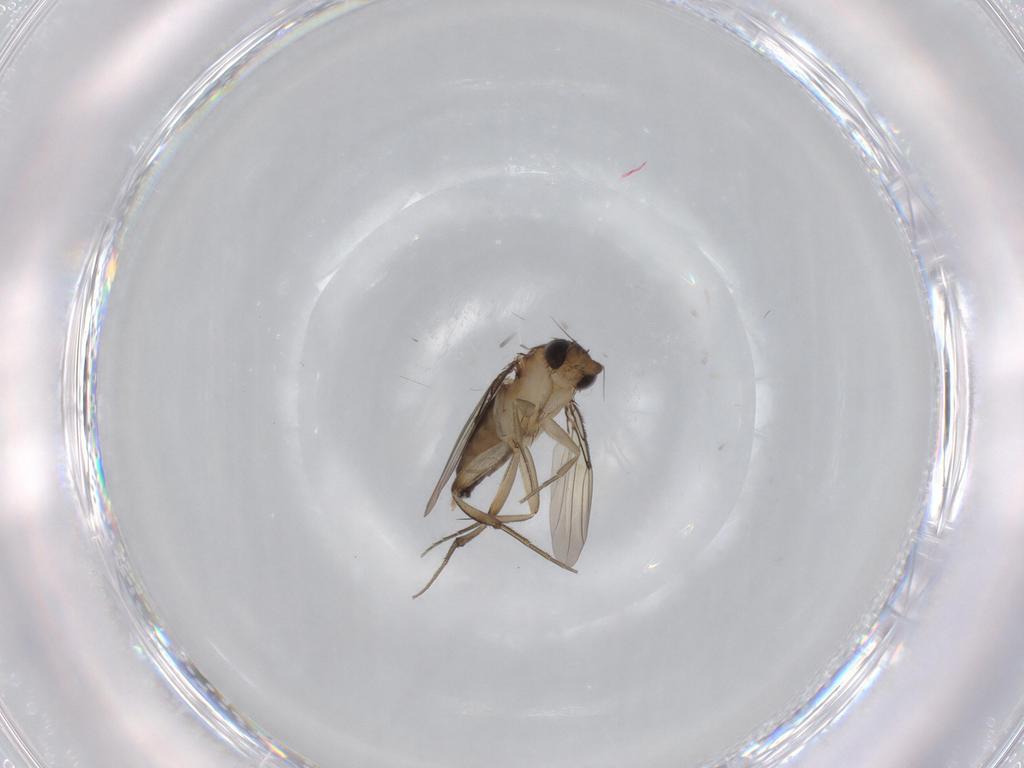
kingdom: Animalia
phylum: Arthropoda
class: Insecta
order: Diptera
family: Phoridae
